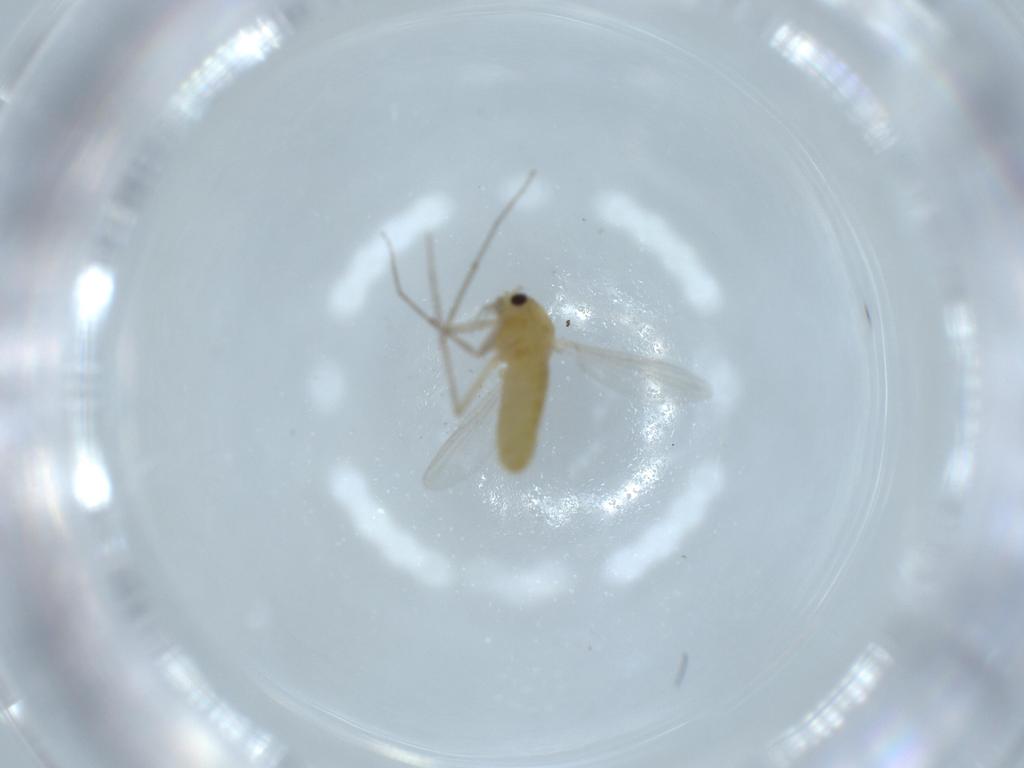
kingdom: Animalia
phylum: Arthropoda
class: Insecta
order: Diptera
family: Chironomidae
